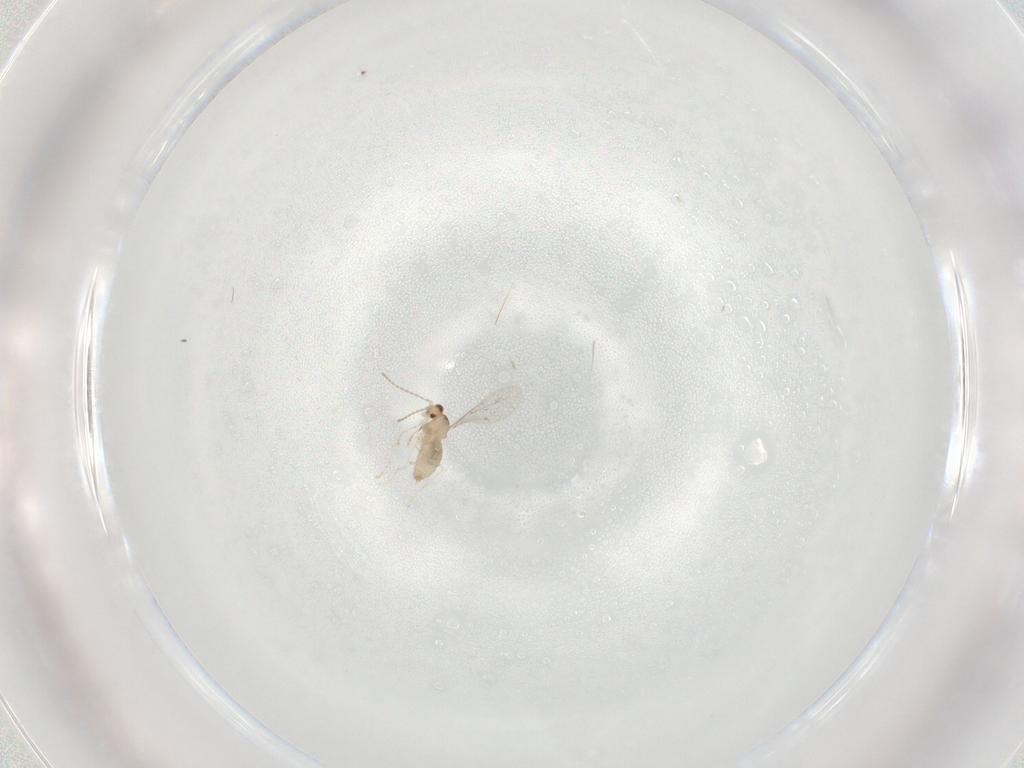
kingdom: Animalia
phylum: Arthropoda
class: Insecta
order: Diptera
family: Cecidomyiidae
